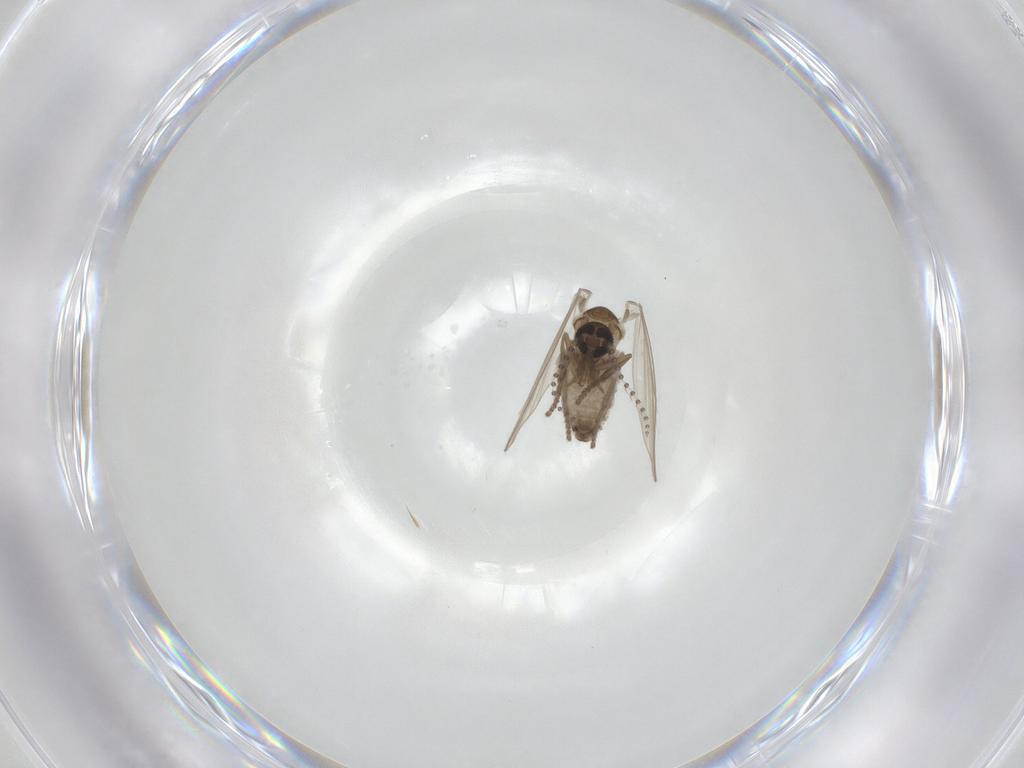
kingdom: Animalia
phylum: Arthropoda
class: Insecta
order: Diptera
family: Psychodidae
